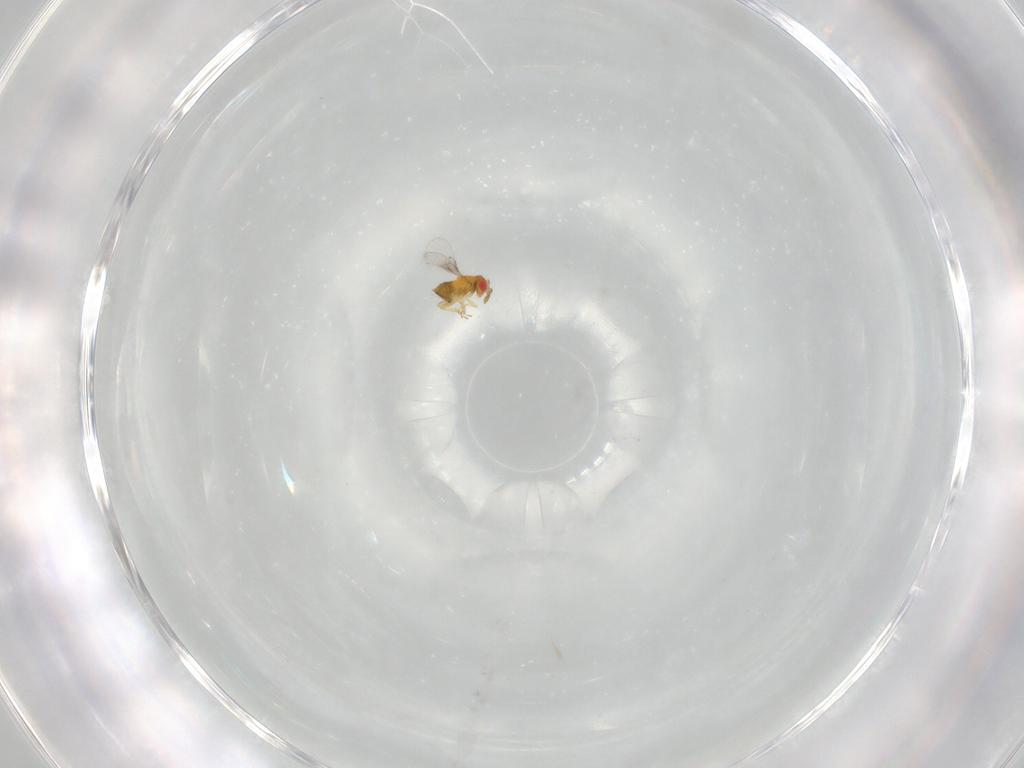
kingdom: Animalia
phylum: Arthropoda
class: Insecta
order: Hymenoptera
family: Trichogrammatidae
